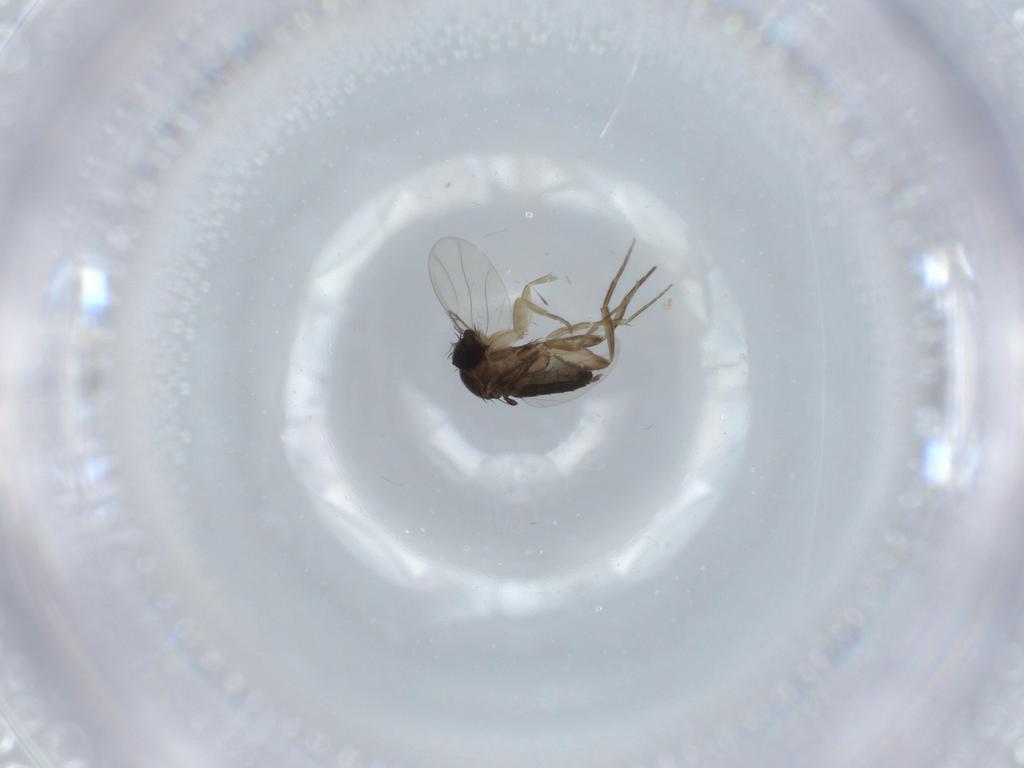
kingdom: Animalia
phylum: Arthropoda
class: Insecta
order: Diptera
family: Phoridae
